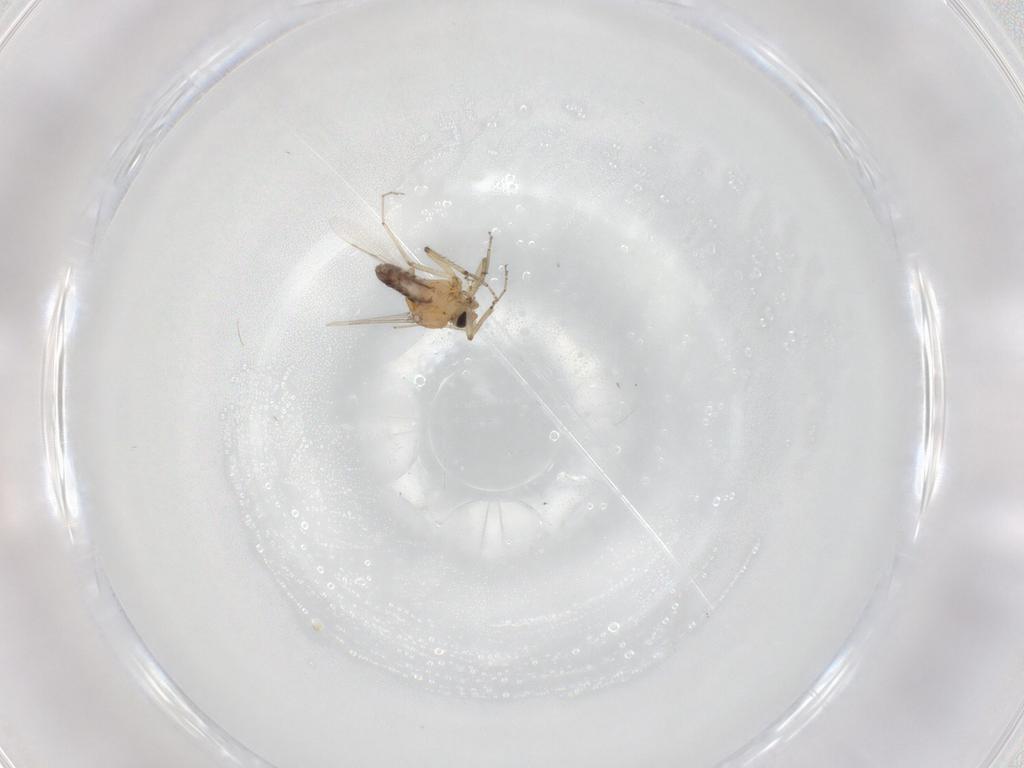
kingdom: Animalia
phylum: Arthropoda
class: Insecta
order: Diptera
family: Ceratopogonidae
